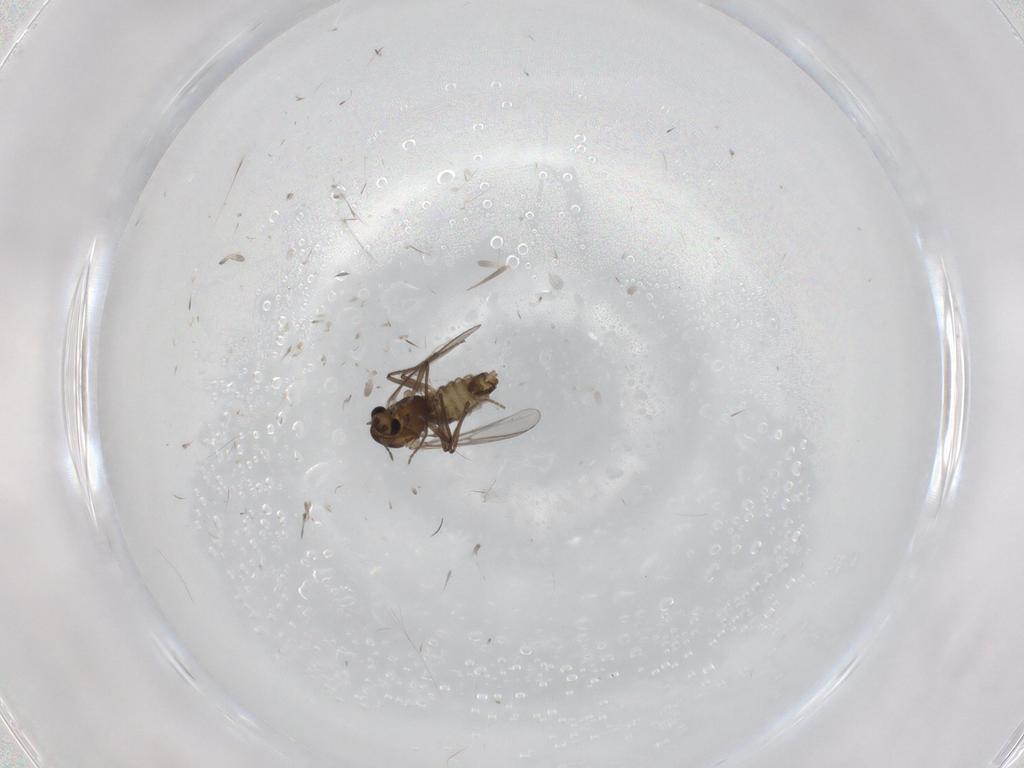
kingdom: Animalia
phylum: Arthropoda
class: Insecta
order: Diptera
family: Chironomidae
